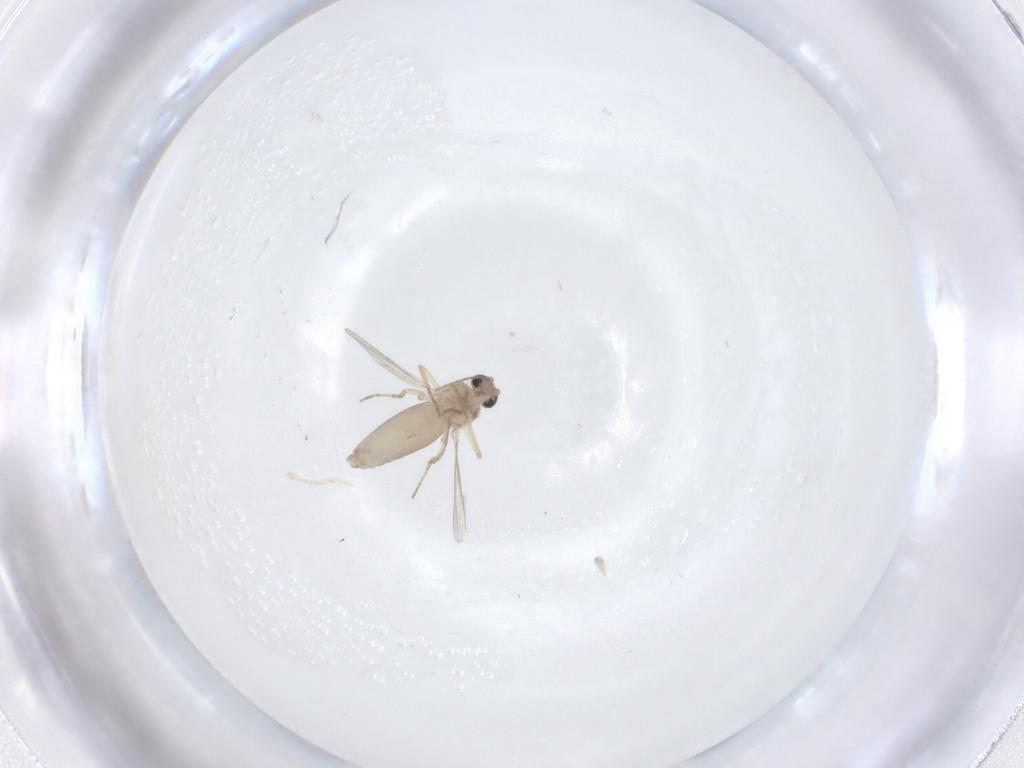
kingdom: Animalia
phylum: Arthropoda
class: Insecta
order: Diptera
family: Ceratopogonidae
